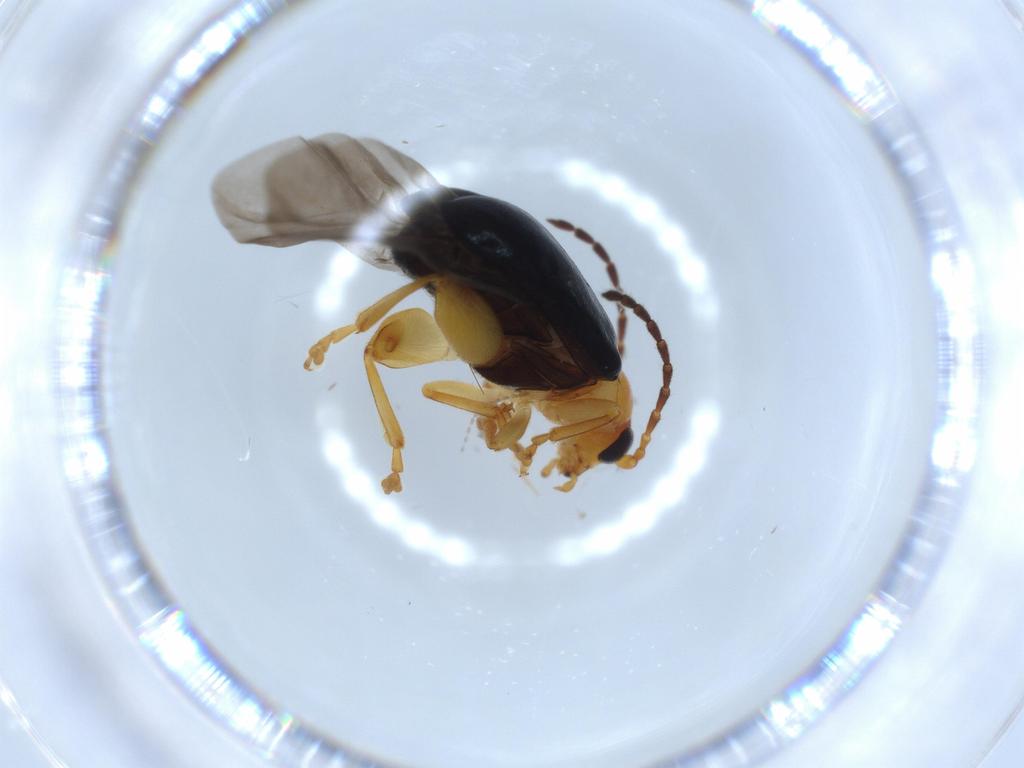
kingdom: Animalia
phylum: Arthropoda
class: Insecta
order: Coleoptera
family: Chrysomelidae
